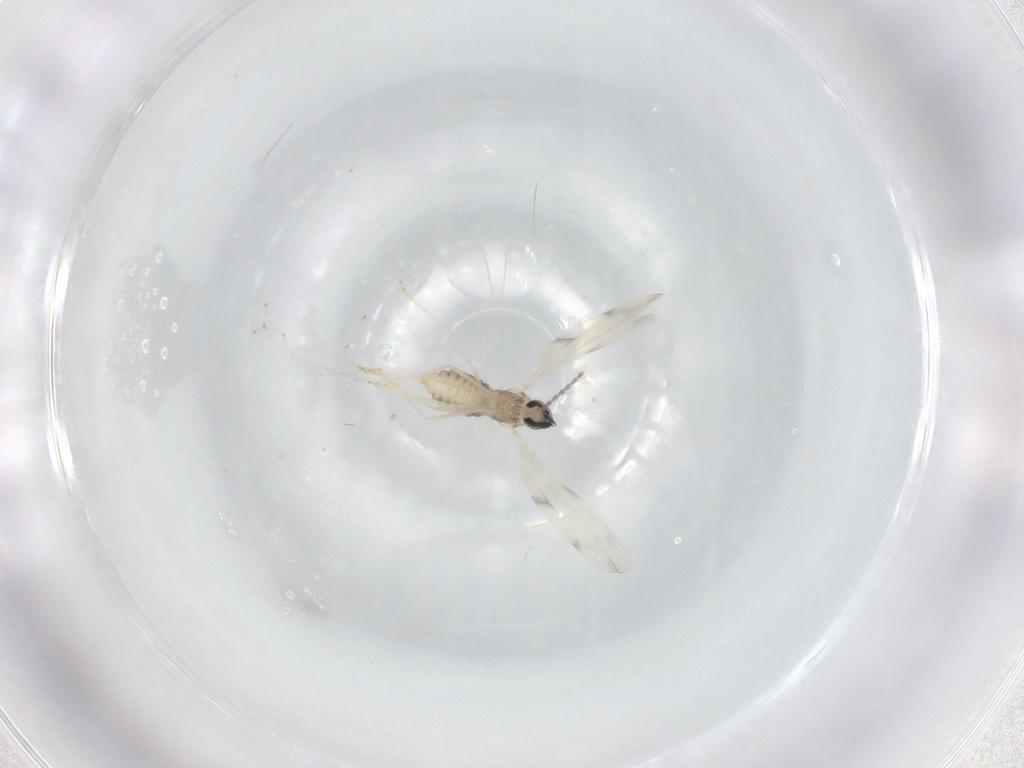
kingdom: Animalia
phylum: Arthropoda
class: Insecta
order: Diptera
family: Cecidomyiidae
